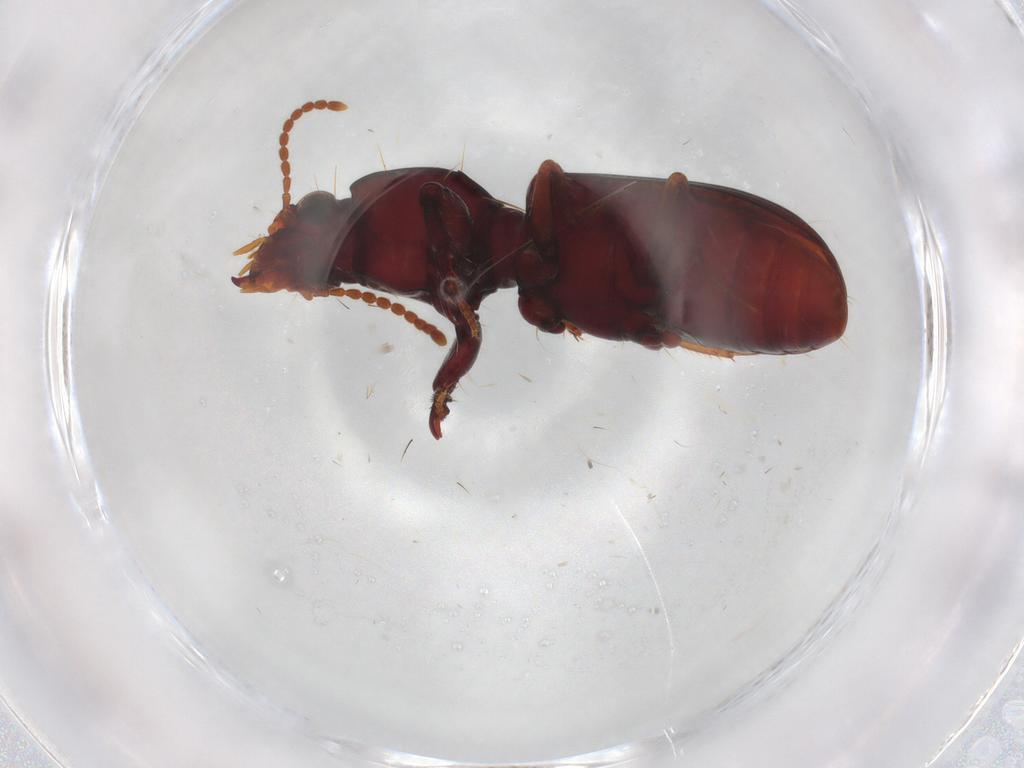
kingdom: Animalia
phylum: Arthropoda
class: Insecta
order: Coleoptera
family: Carabidae
